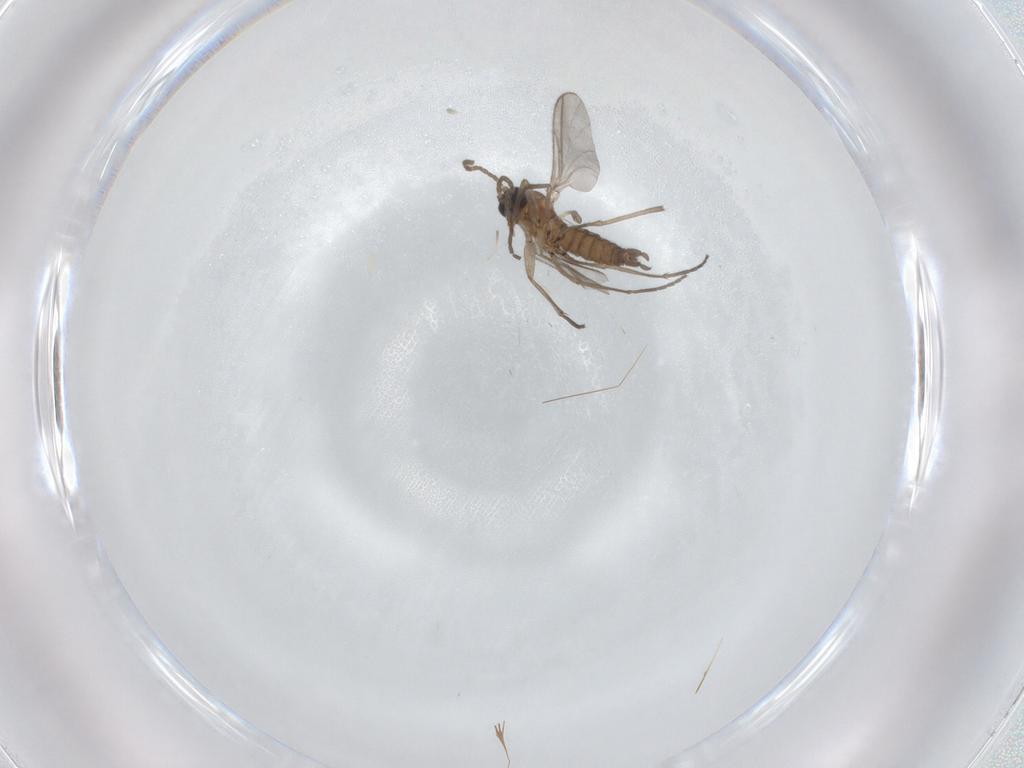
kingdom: Animalia
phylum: Arthropoda
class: Insecta
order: Diptera
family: Sciaridae
